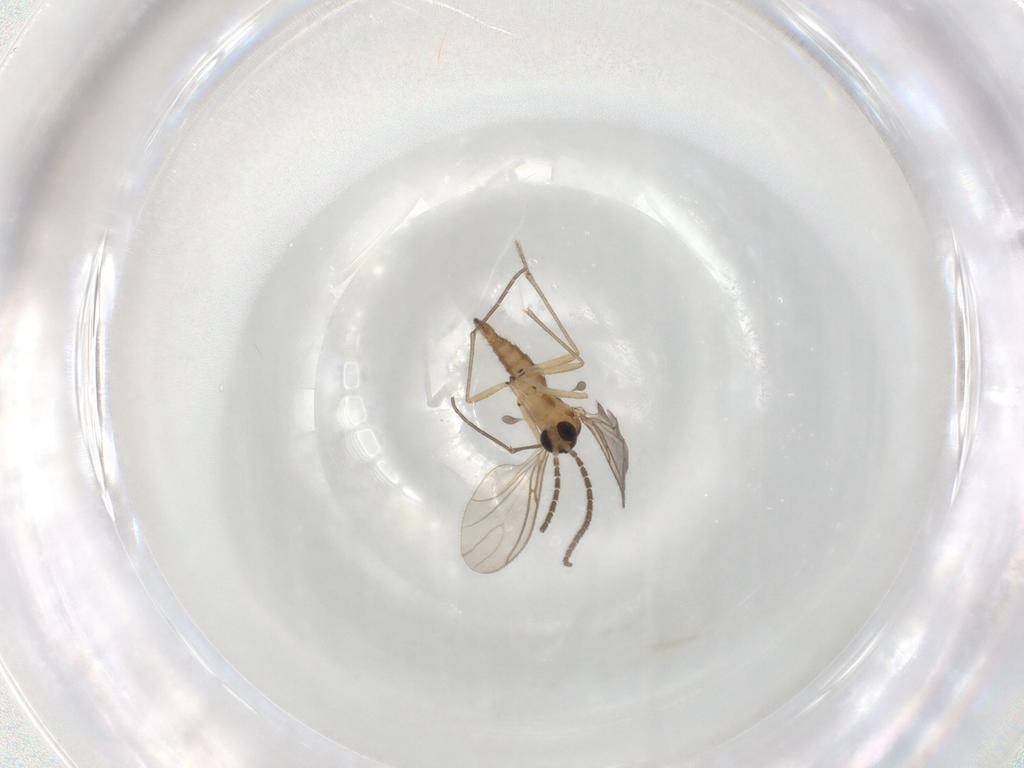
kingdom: Animalia
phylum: Arthropoda
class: Insecta
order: Diptera
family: Sciaridae
